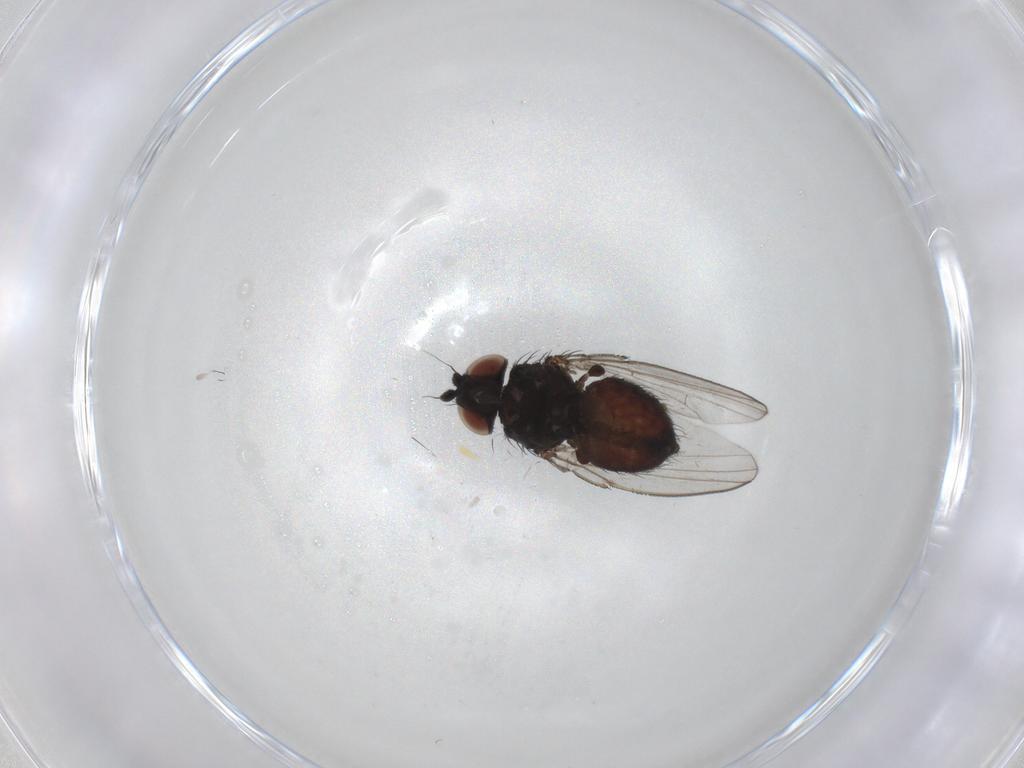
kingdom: Animalia
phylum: Arthropoda
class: Insecta
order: Diptera
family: Milichiidae
